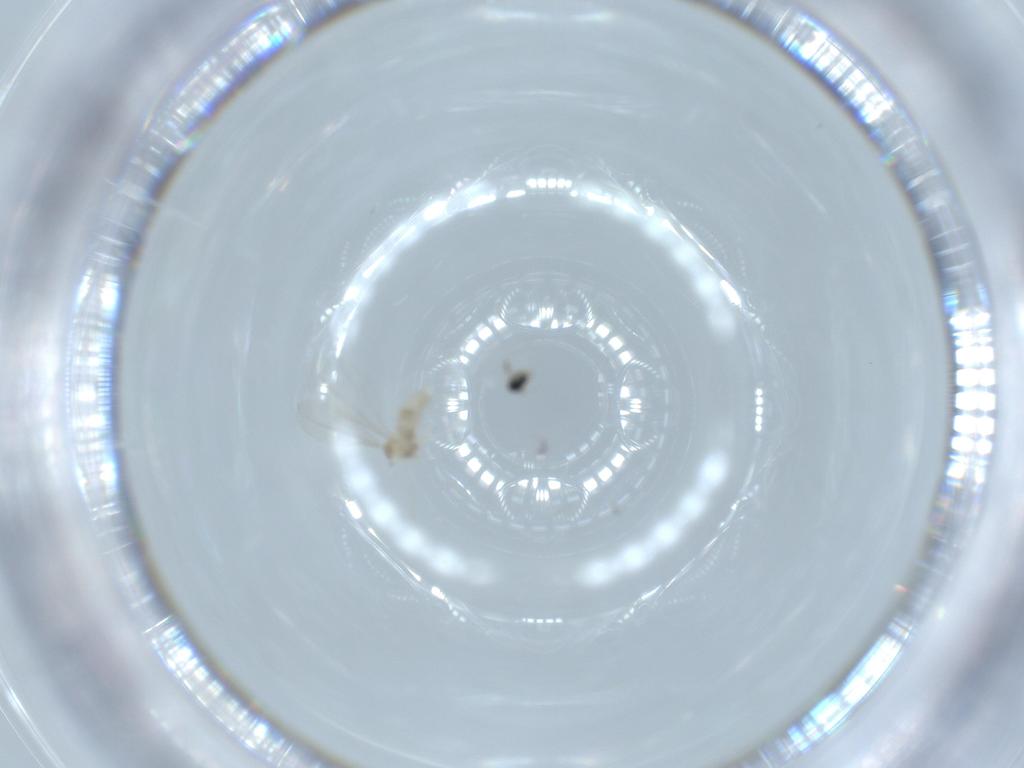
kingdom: Animalia
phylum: Arthropoda
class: Insecta
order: Diptera
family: Cecidomyiidae
